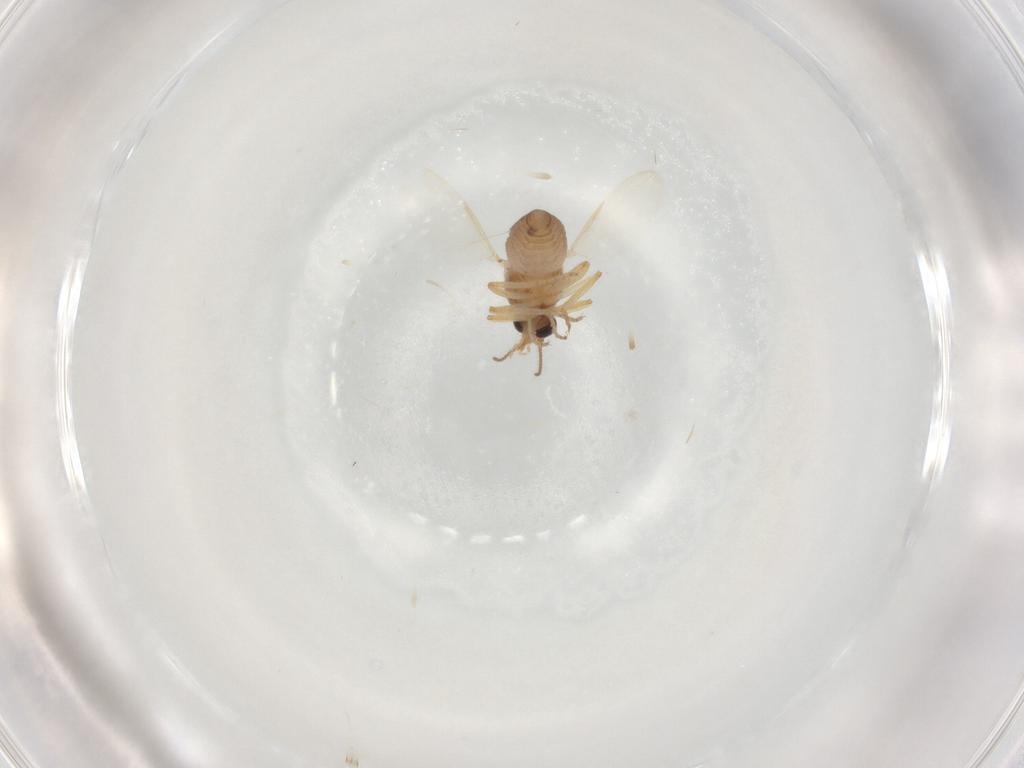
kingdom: Animalia
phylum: Arthropoda
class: Insecta
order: Diptera
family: Ceratopogonidae
